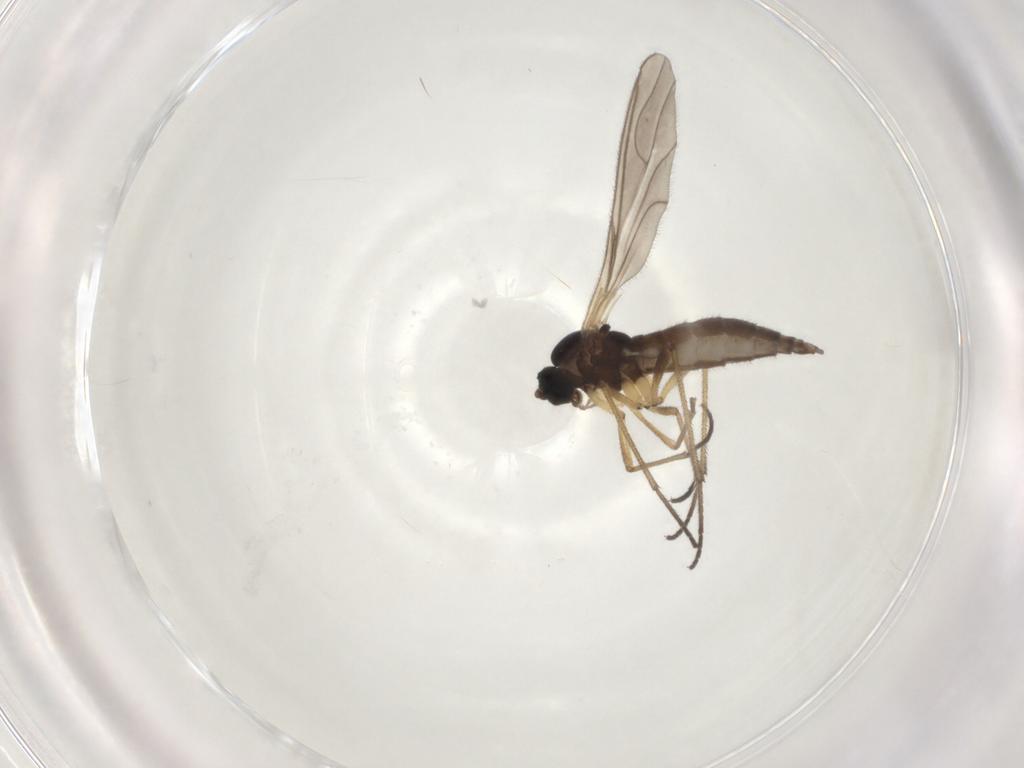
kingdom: Animalia
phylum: Arthropoda
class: Insecta
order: Diptera
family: Sciaridae
